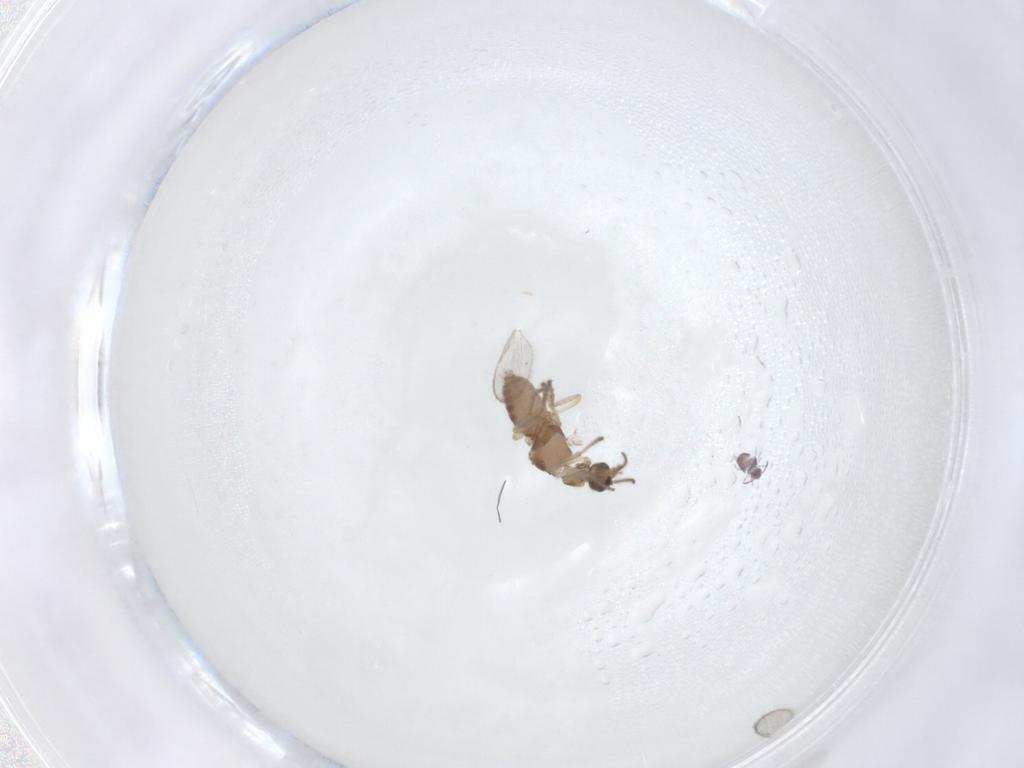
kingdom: Animalia
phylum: Arthropoda
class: Insecta
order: Diptera
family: Ceratopogonidae
